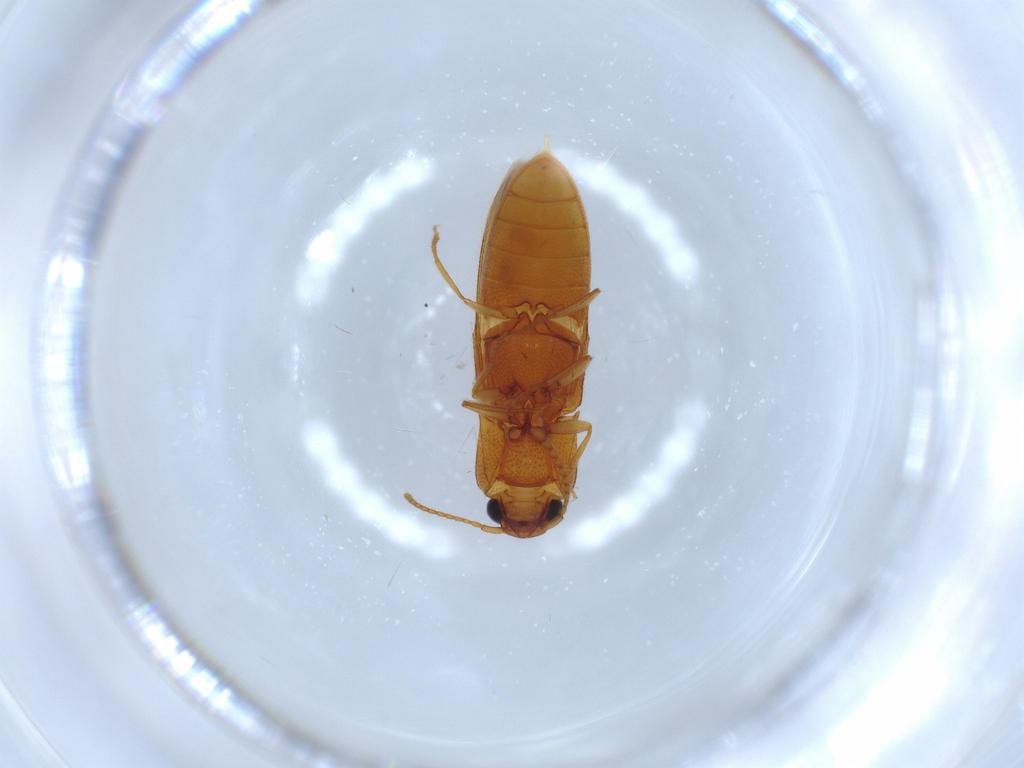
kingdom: Animalia
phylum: Arthropoda
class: Insecta
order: Coleoptera
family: Elateridae
